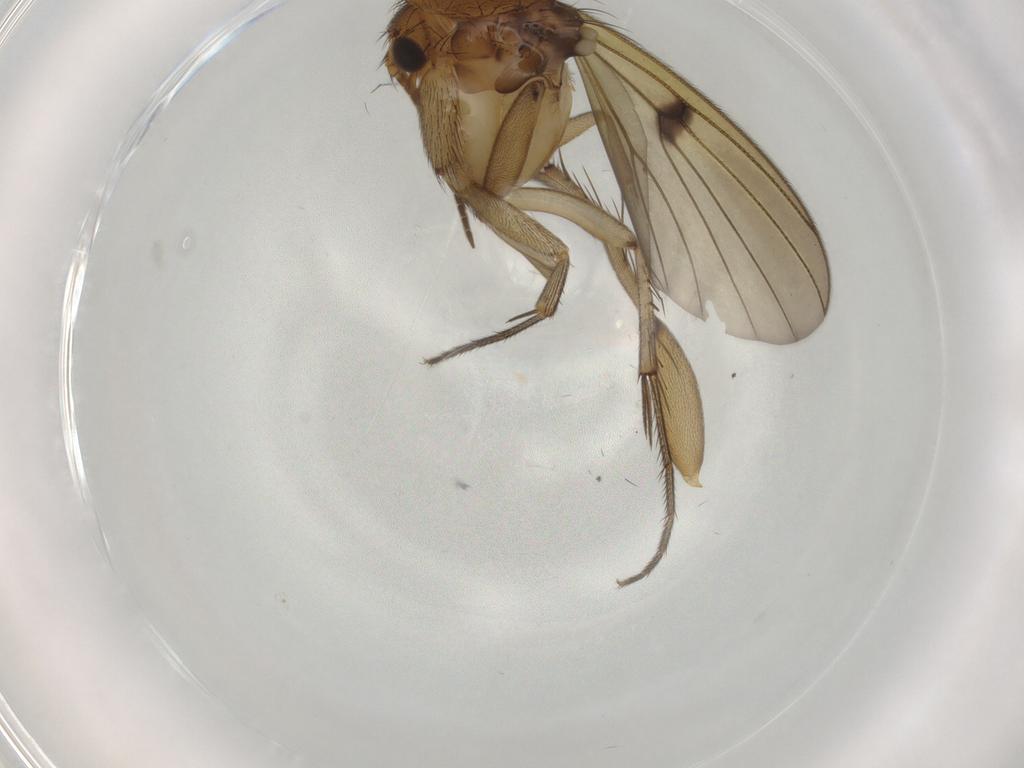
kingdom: Animalia
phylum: Arthropoda
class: Insecta
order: Diptera
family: Mycetophilidae
